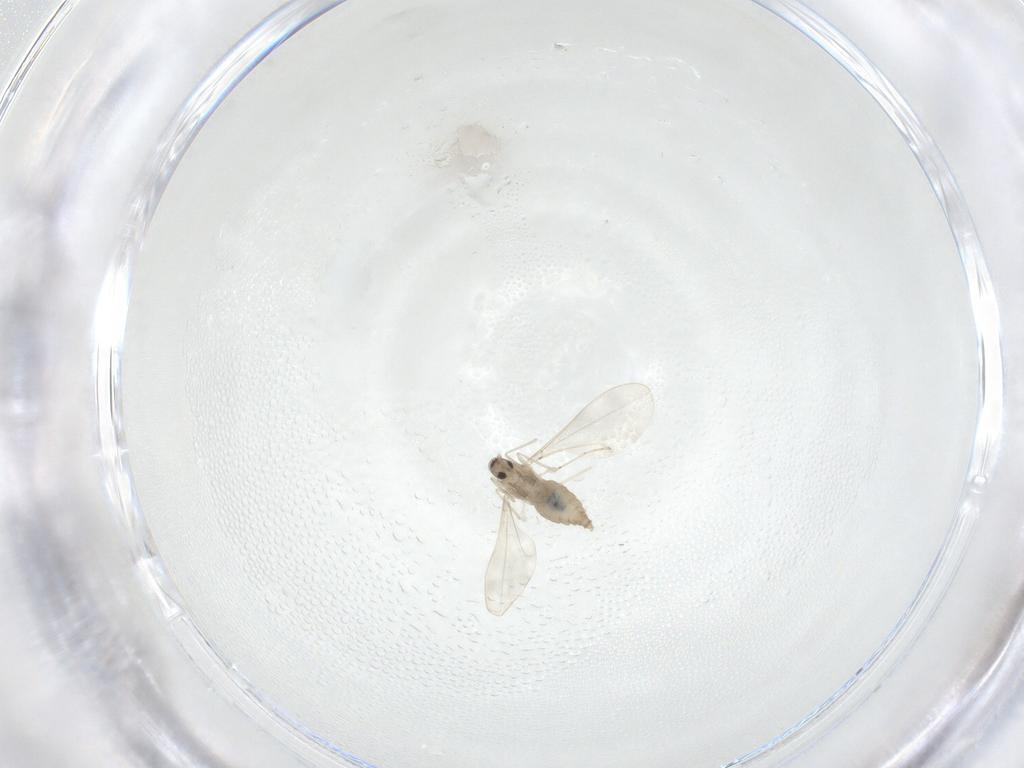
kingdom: Animalia
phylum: Arthropoda
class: Insecta
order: Diptera
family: Cecidomyiidae
